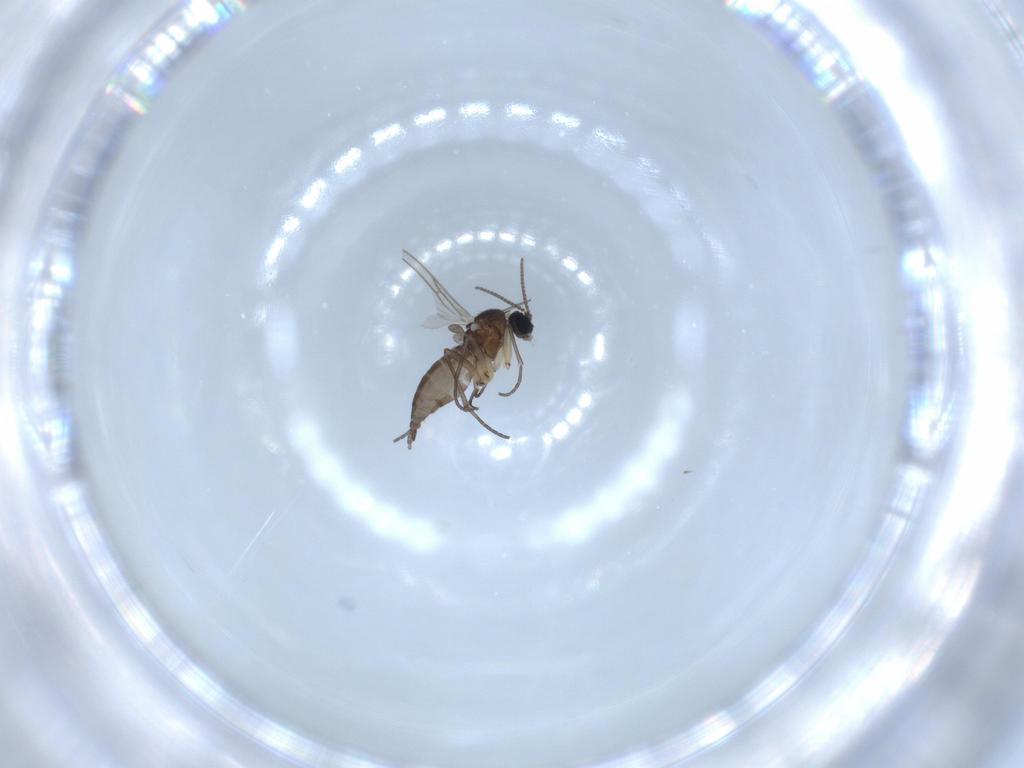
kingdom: Animalia
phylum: Arthropoda
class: Insecta
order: Diptera
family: Sciaridae
